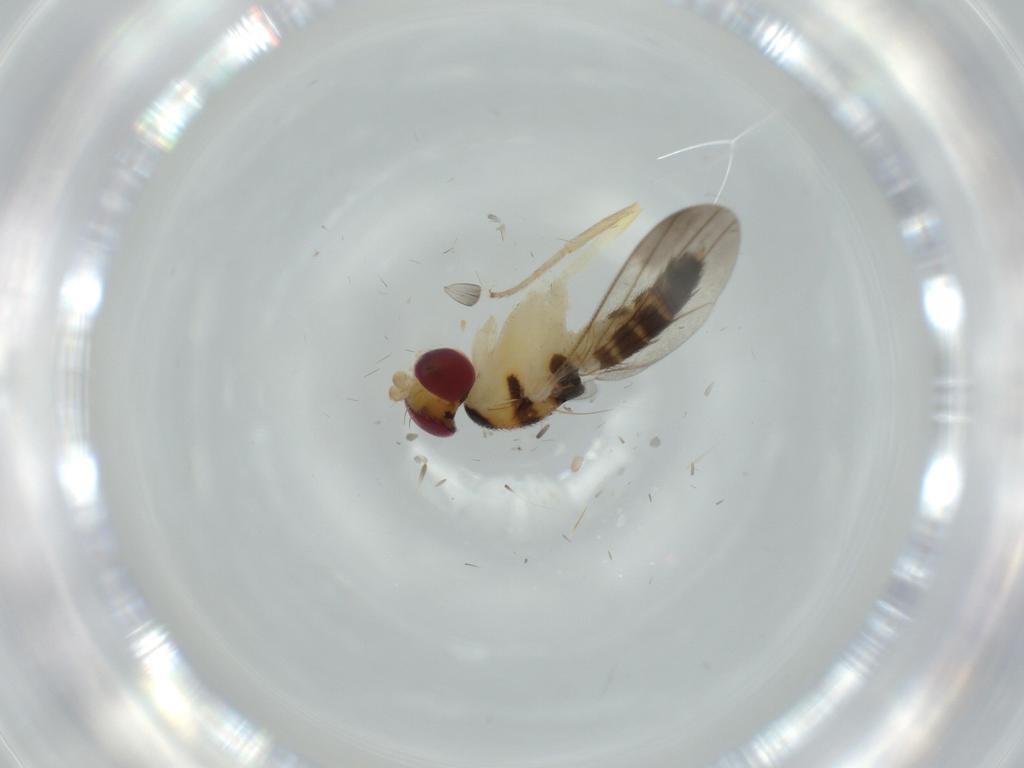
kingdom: Animalia
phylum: Arthropoda
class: Insecta
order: Diptera
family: Clusiidae
